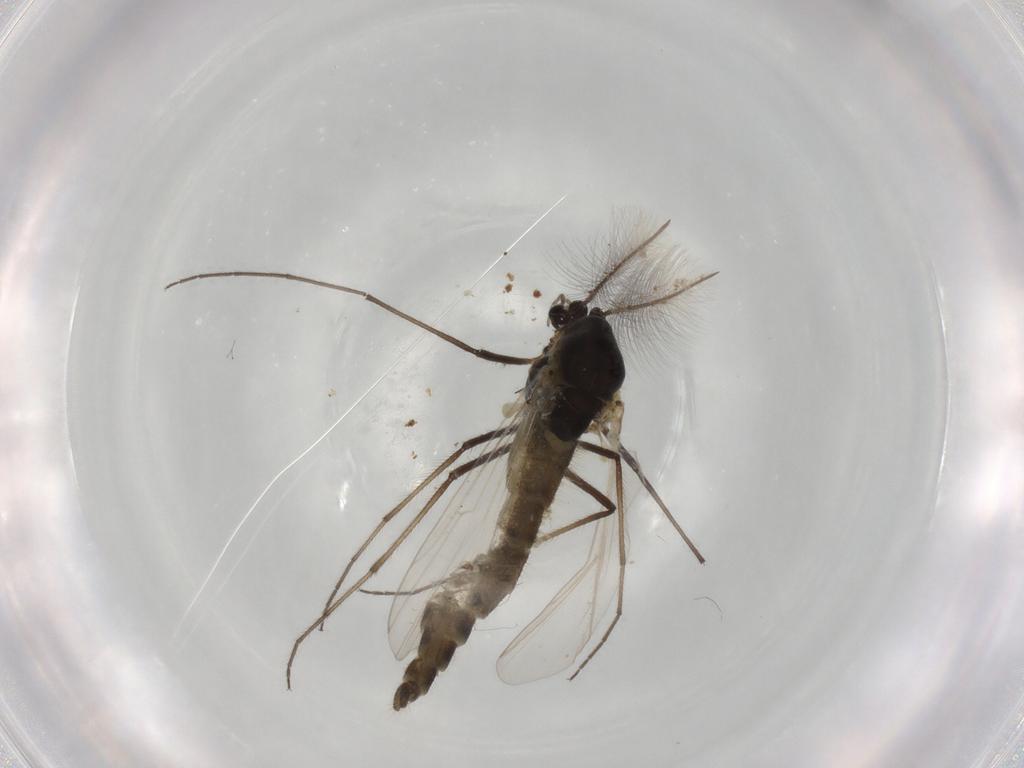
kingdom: Animalia
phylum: Arthropoda
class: Insecta
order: Diptera
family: Chironomidae
